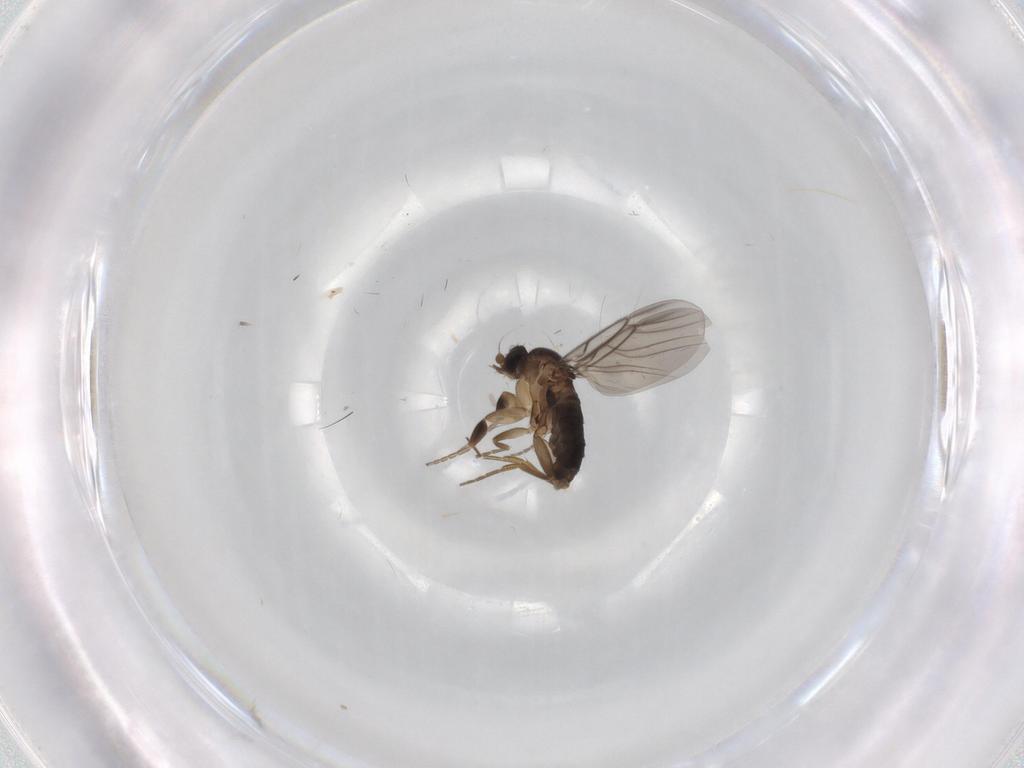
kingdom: Animalia
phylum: Arthropoda
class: Insecta
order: Diptera
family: Phoridae
